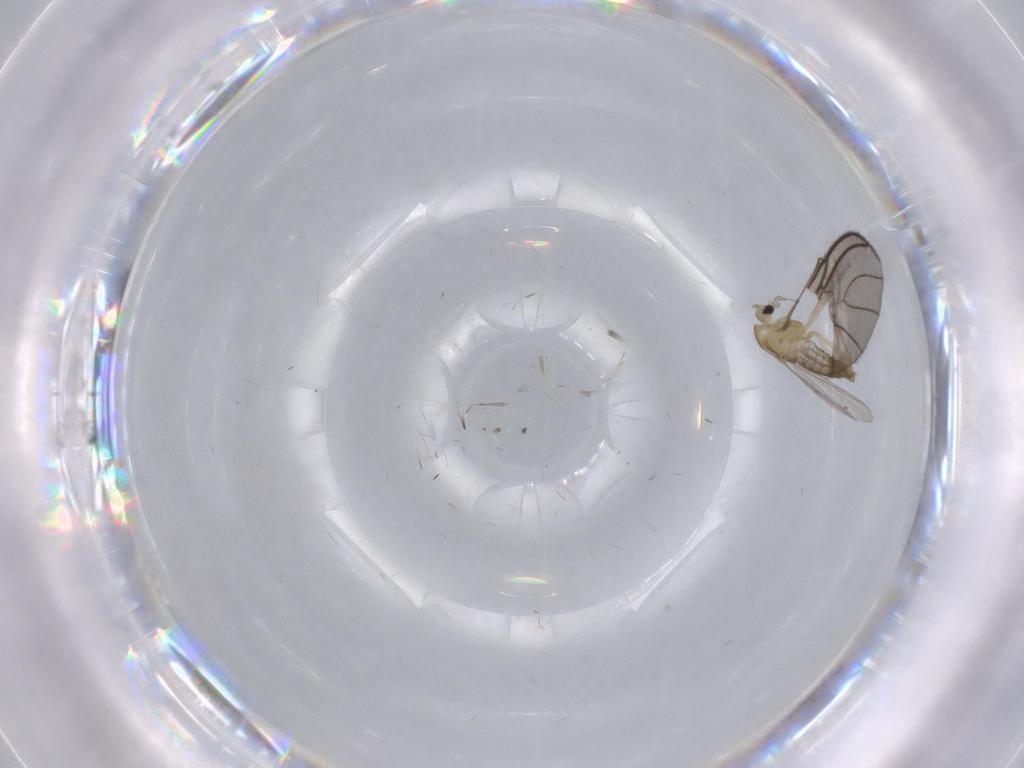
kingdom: Animalia
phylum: Arthropoda
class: Insecta
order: Diptera
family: Chironomidae
